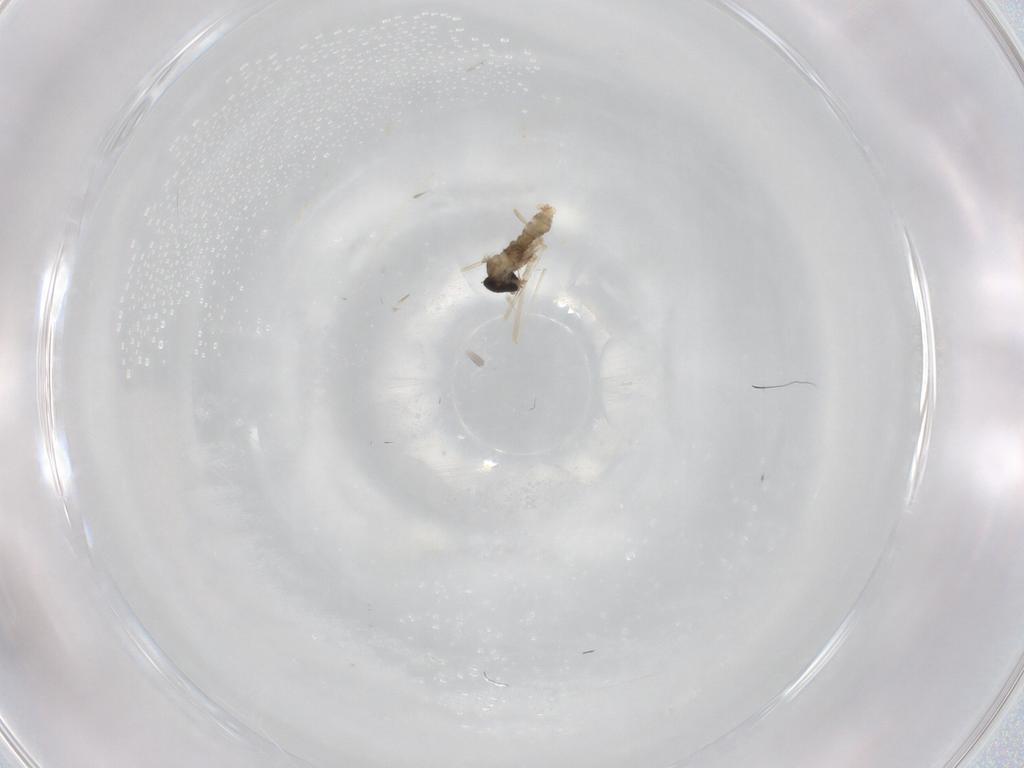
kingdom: Animalia
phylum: Arthropoda
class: Insecta
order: Diptera
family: Cecidomyiidae
